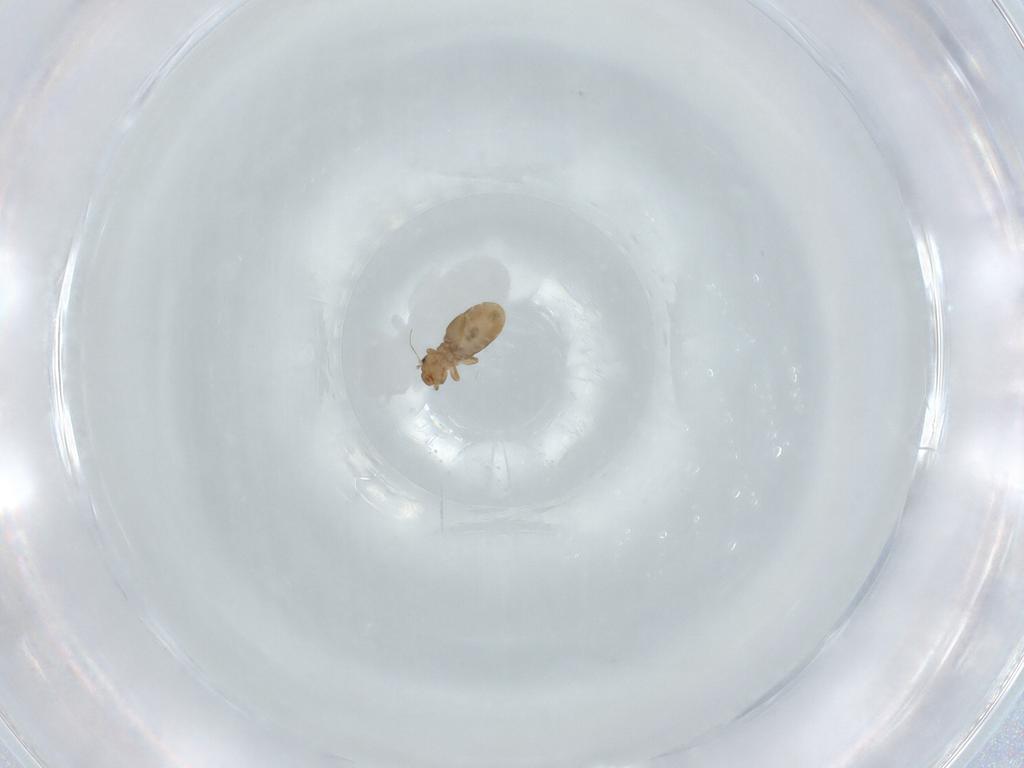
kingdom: Animalia
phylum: Arthropoda
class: Insecta
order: Psocodea
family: Liposcelididae
